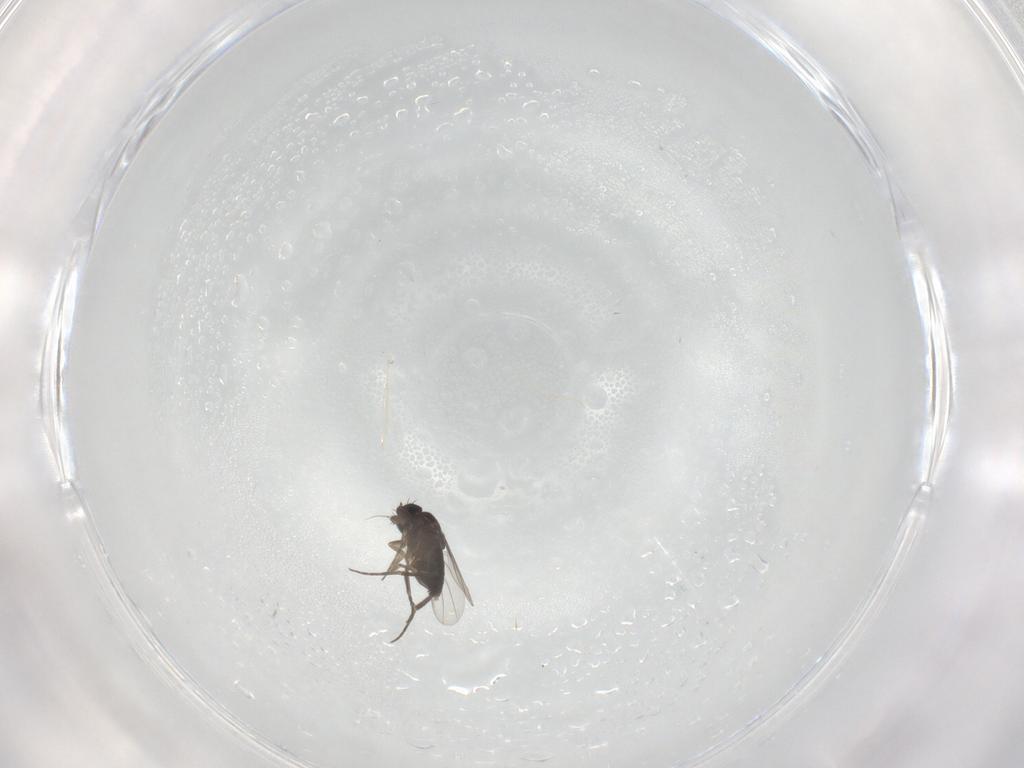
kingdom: Animalia
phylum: Arthropoda
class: Insecta
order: Diptera
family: Phoridae
